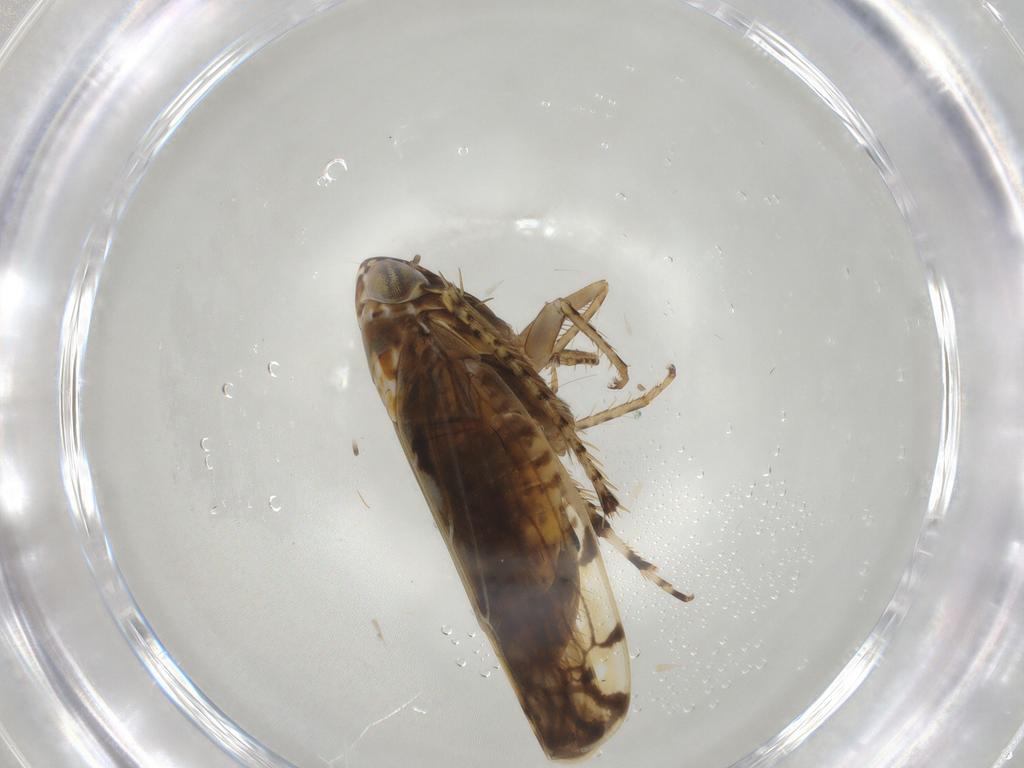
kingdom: Animalia
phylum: Arthropoda
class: Insecta
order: Hemiptera
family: Cicadellidae
